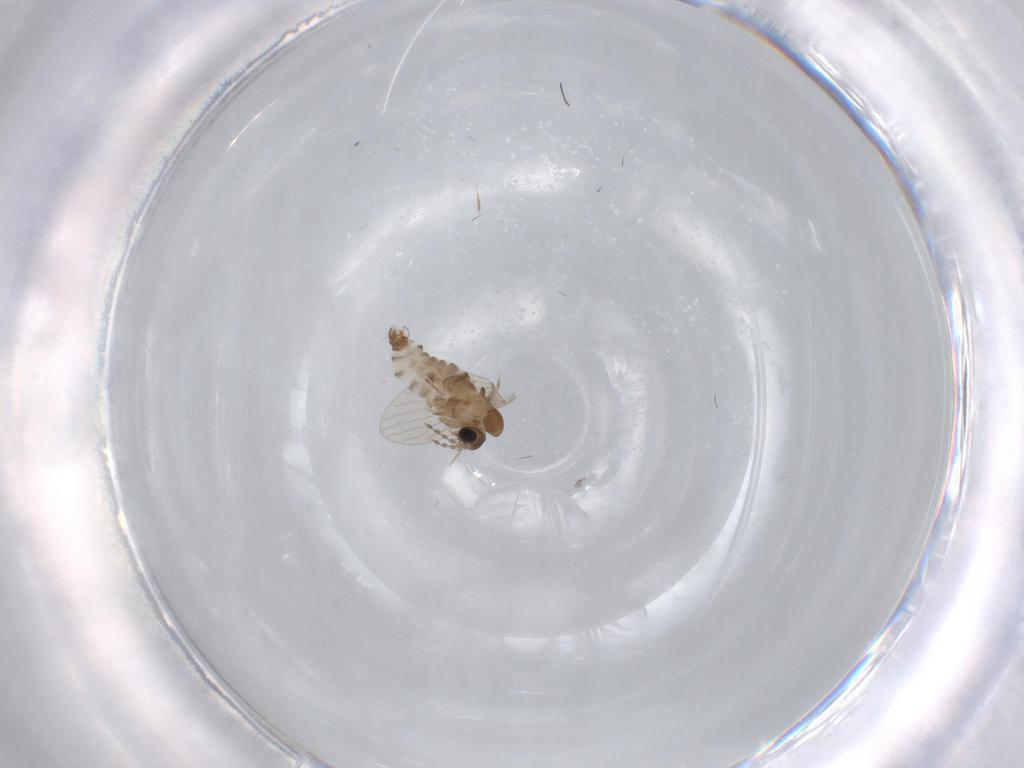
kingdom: Animalia
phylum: Arthropoda
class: Insecta
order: Diptera
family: Psychodidae
